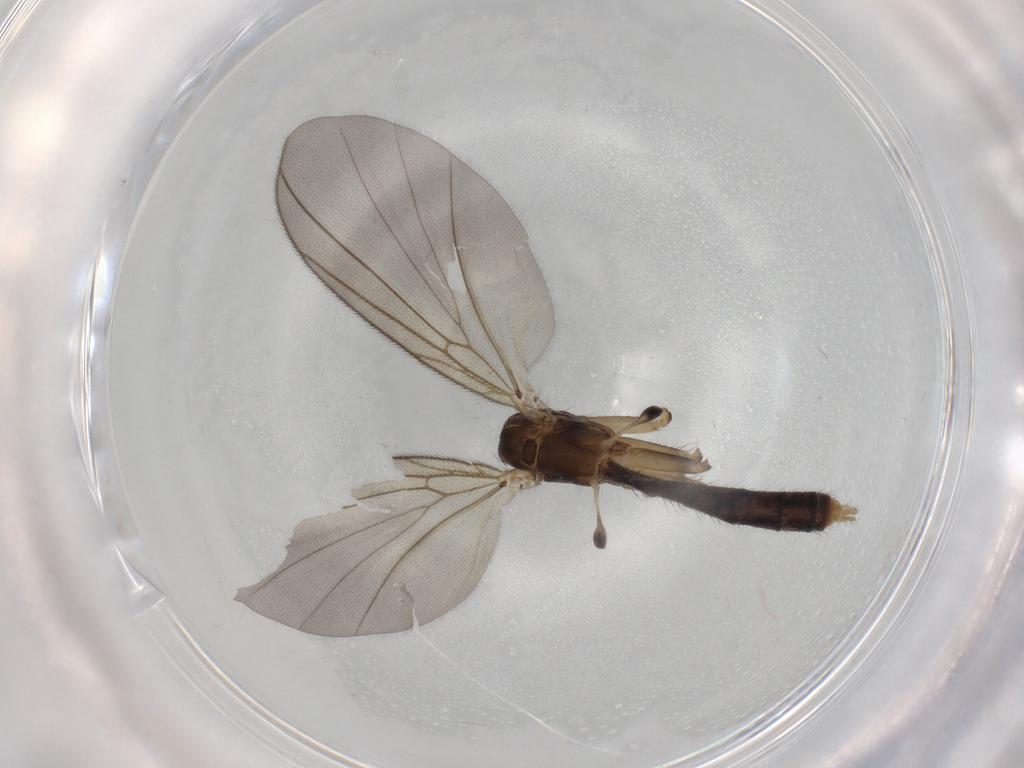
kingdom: Animalia
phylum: Arthropoda
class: Insecta
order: Diptera
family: Mycetophilidae
